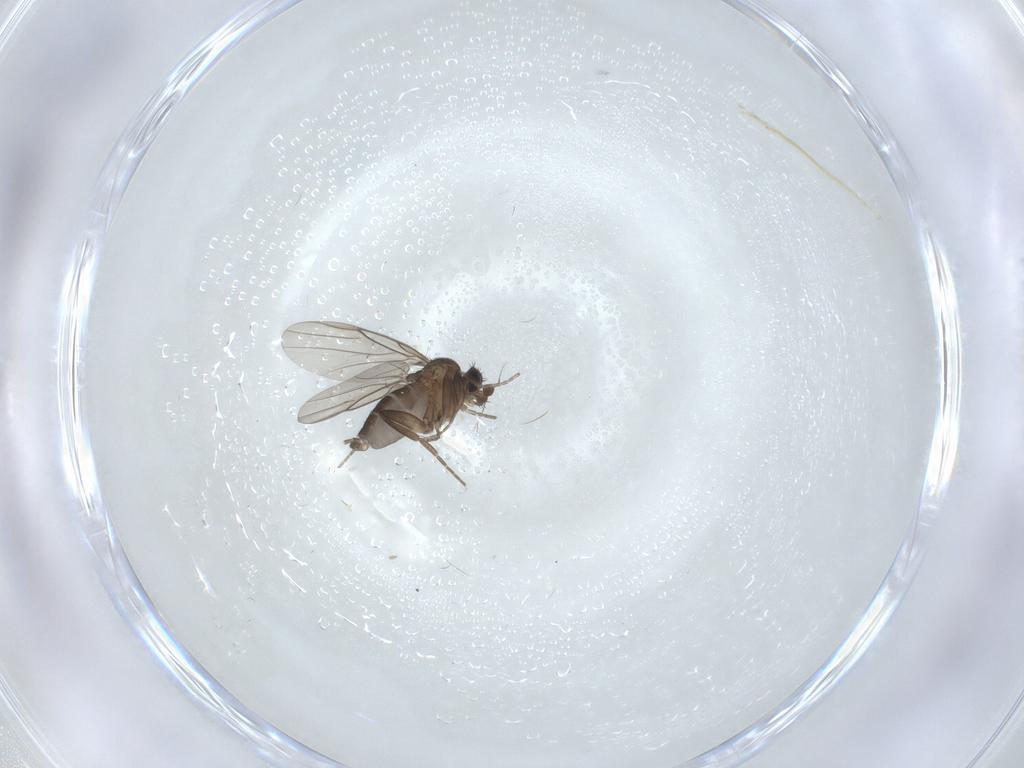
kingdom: Animalia
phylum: Arthropoda
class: Insecta
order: Diptera
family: Phoridae
